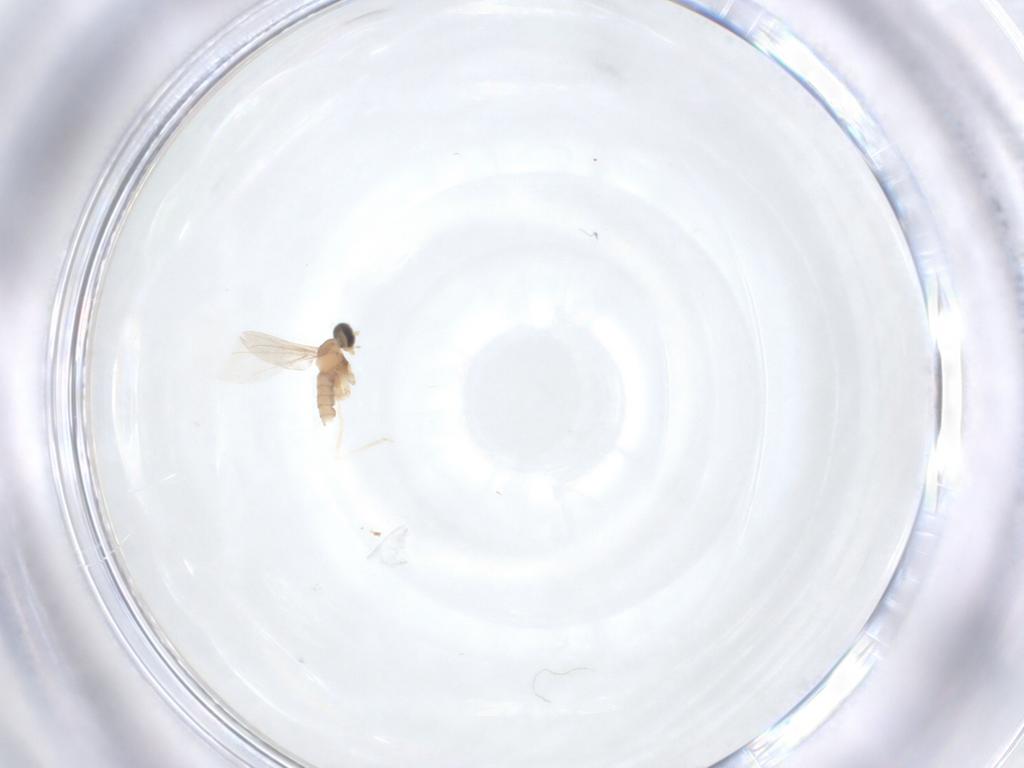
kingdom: Animalia
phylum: Arthropoda
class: Insecta
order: Diptera
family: Cecidomyiidae
